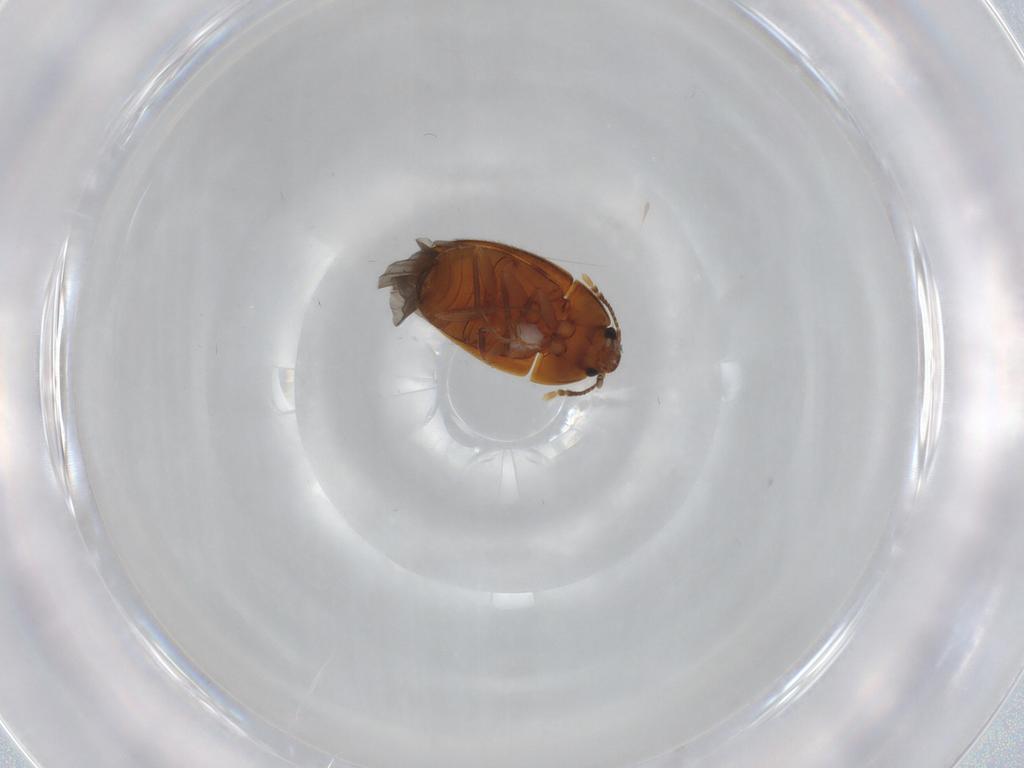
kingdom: Animalia
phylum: Arthropoda
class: Insecta
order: Coleoptera
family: Mycetophagidae
